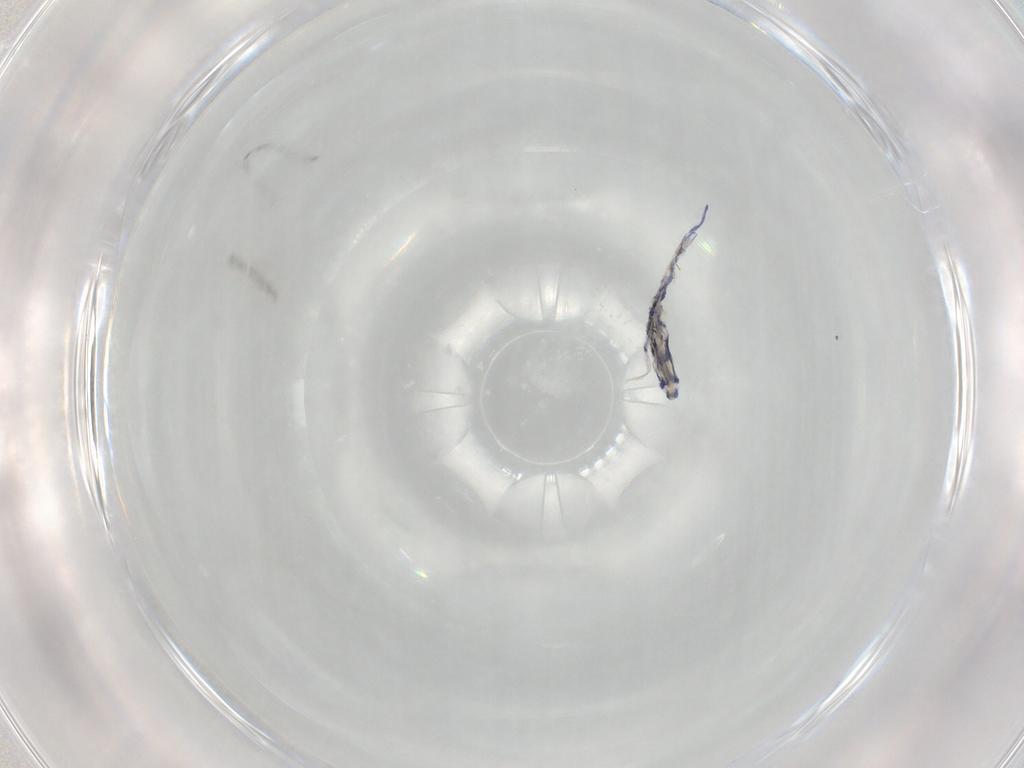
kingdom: Animalia
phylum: Arthropoda
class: Collembola
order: Entomobryomorpha
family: Entomobryidae
